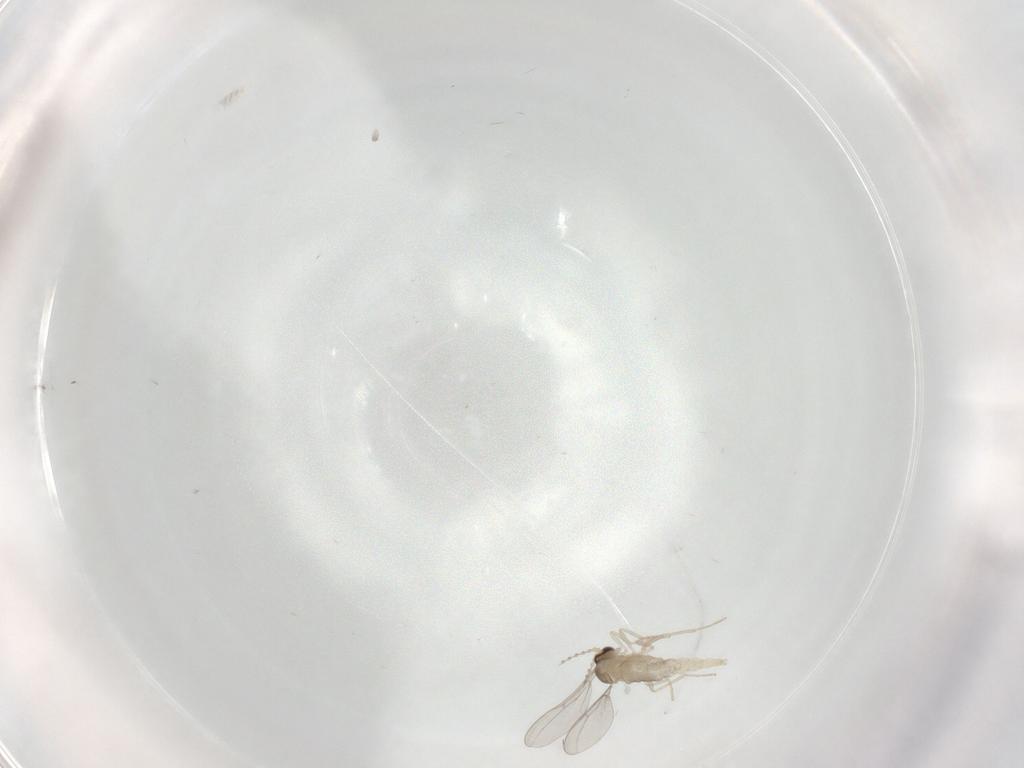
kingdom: Animalia
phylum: Arthropoda
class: Insecta
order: Diptera
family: Cecidomyiidae
